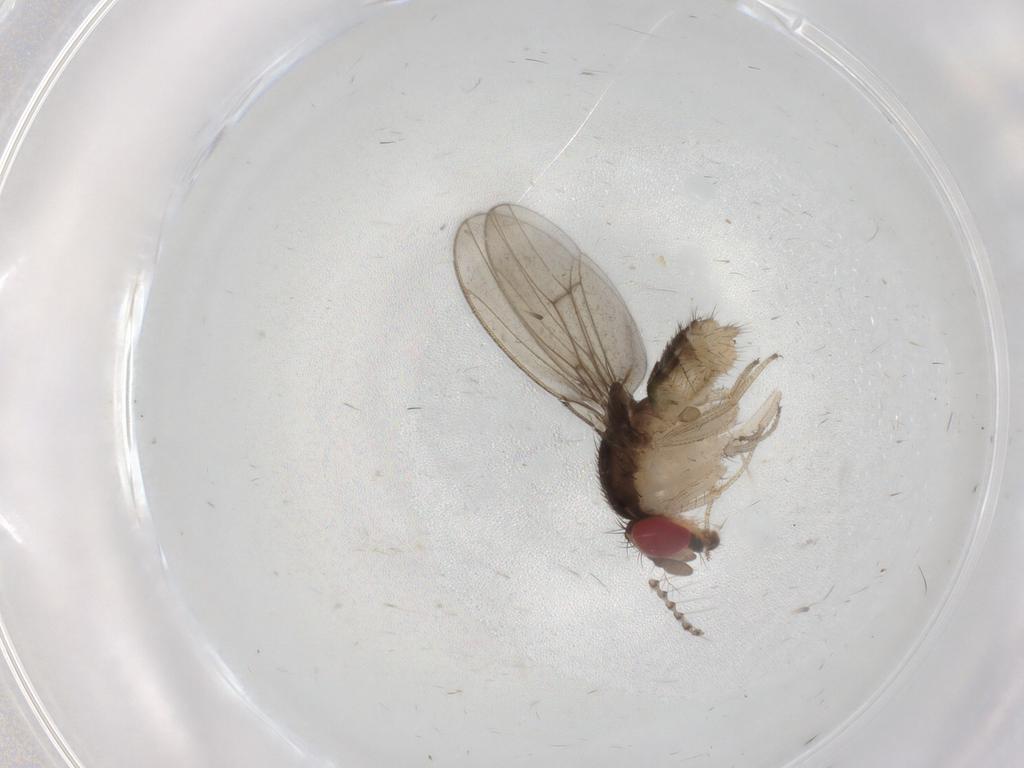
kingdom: Animalia
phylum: Arthropoda
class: Insecta
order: Diptera
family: Psychodidae
